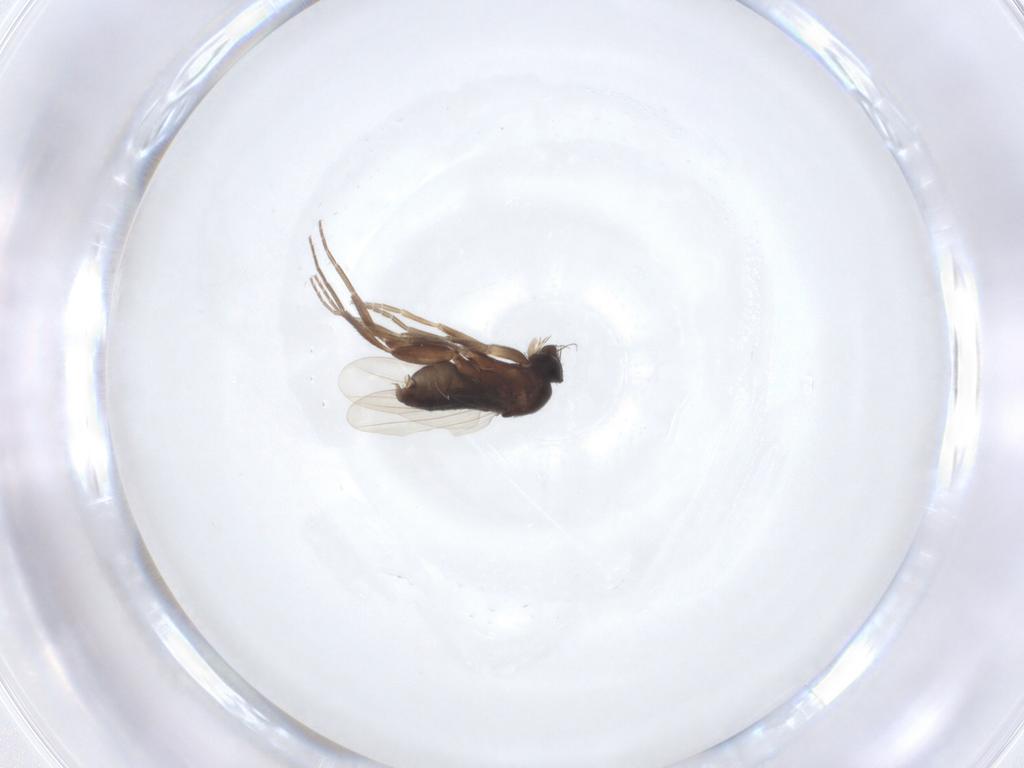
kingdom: Animalia
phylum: Arthropoda
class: Insecta
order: Diptera
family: Phoridae
